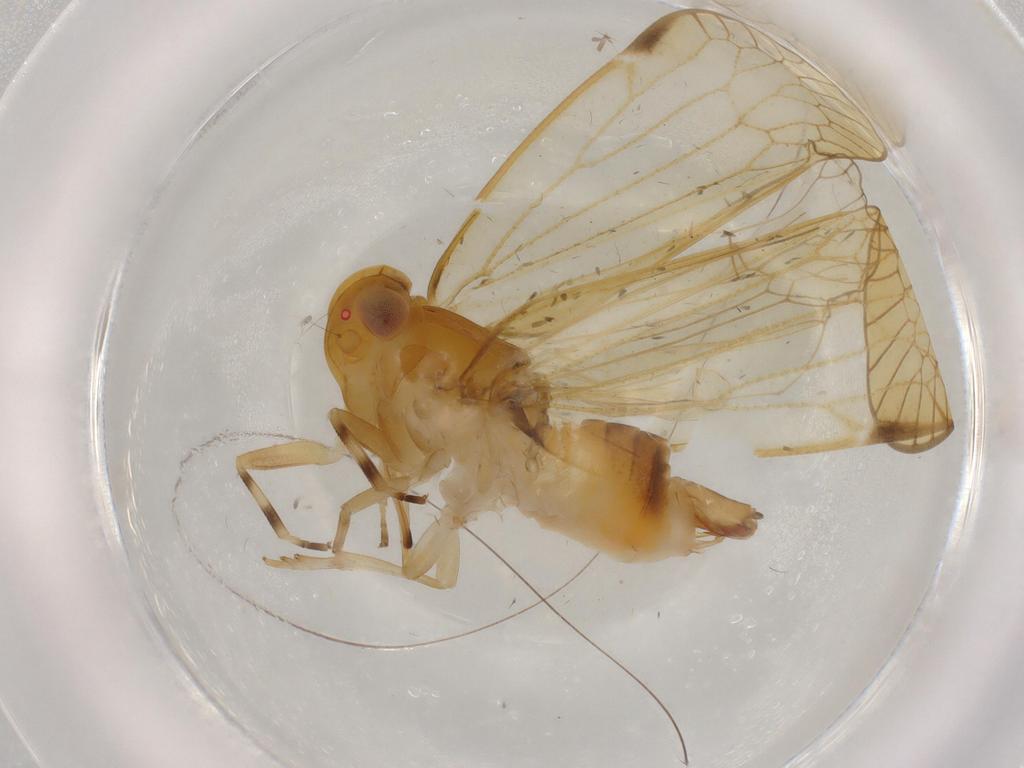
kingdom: Animalia
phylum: Arthropoda
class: Insecta
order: Hemiptera
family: Cixiidae
